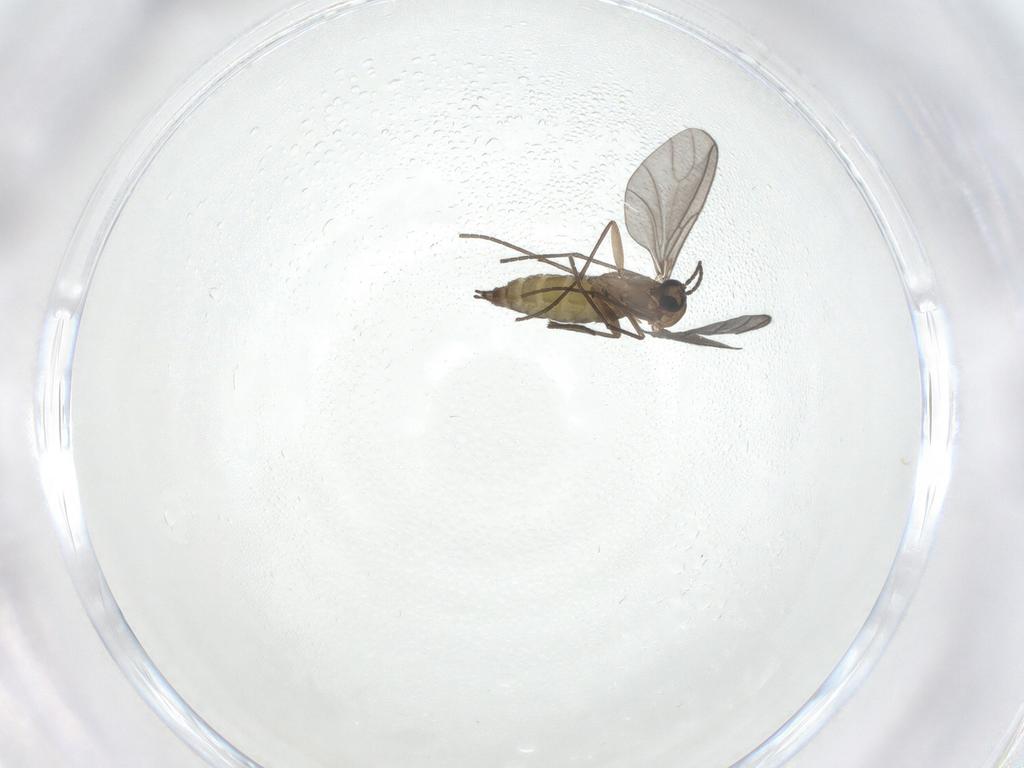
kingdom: Animalia
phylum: Arthropoda
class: Insecta
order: Diptera
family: Sciaridae
